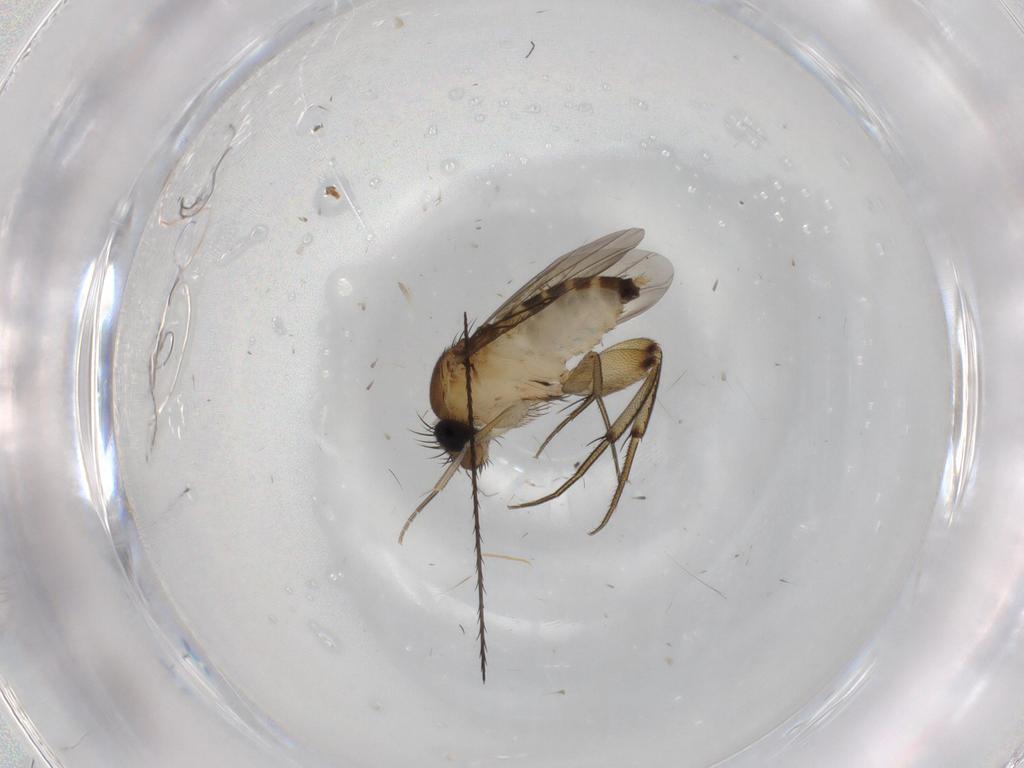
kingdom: Animalia
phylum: Arthropoda
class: Insecta
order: Diptera
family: Phoridae
